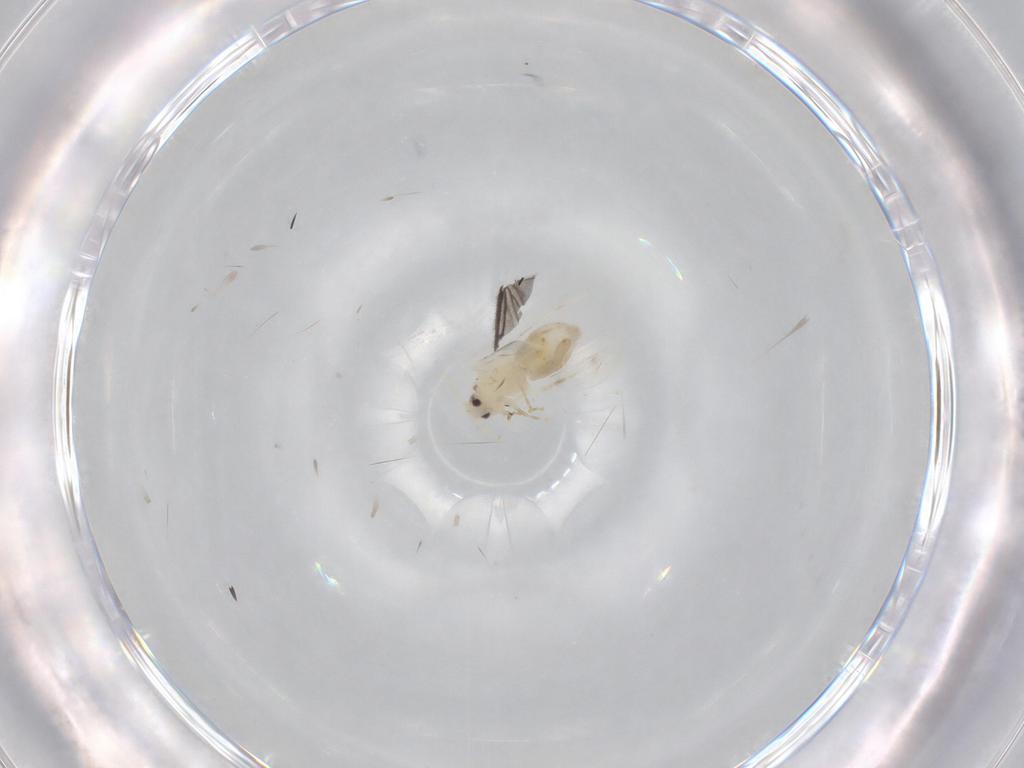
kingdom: Animalia
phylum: Arthropoda
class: Insecta
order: Hemiptera
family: Aleyrodidae
